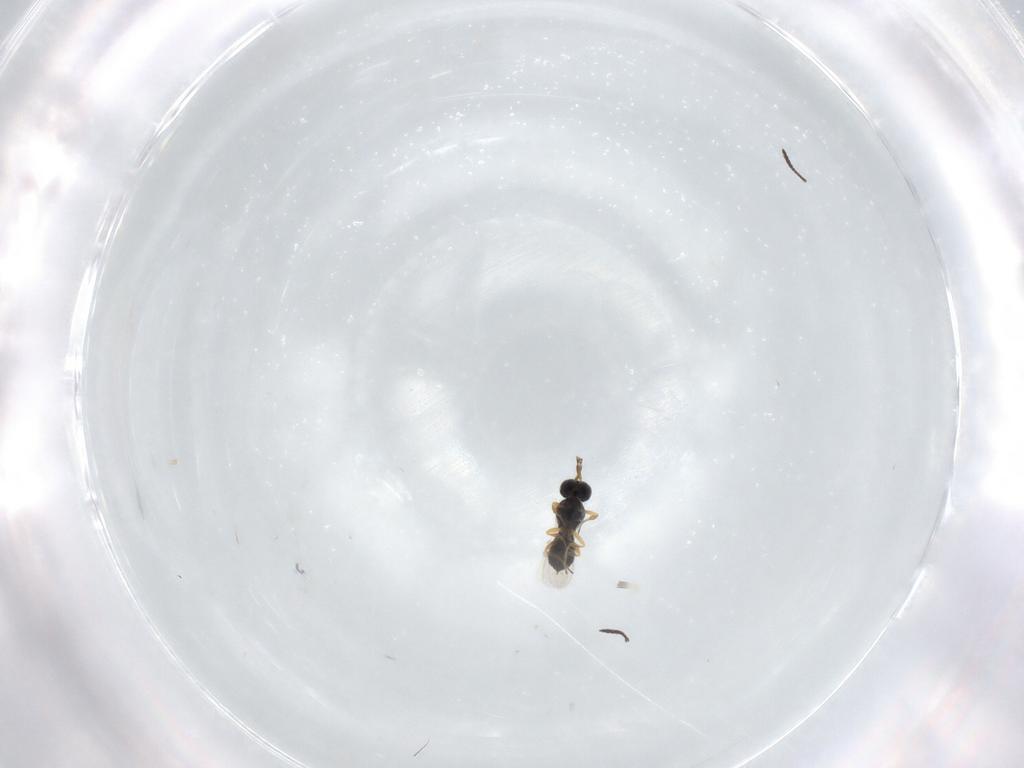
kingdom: Animalia
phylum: Arthropoda
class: Insecta
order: Hymenoptera
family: Scelionidae
